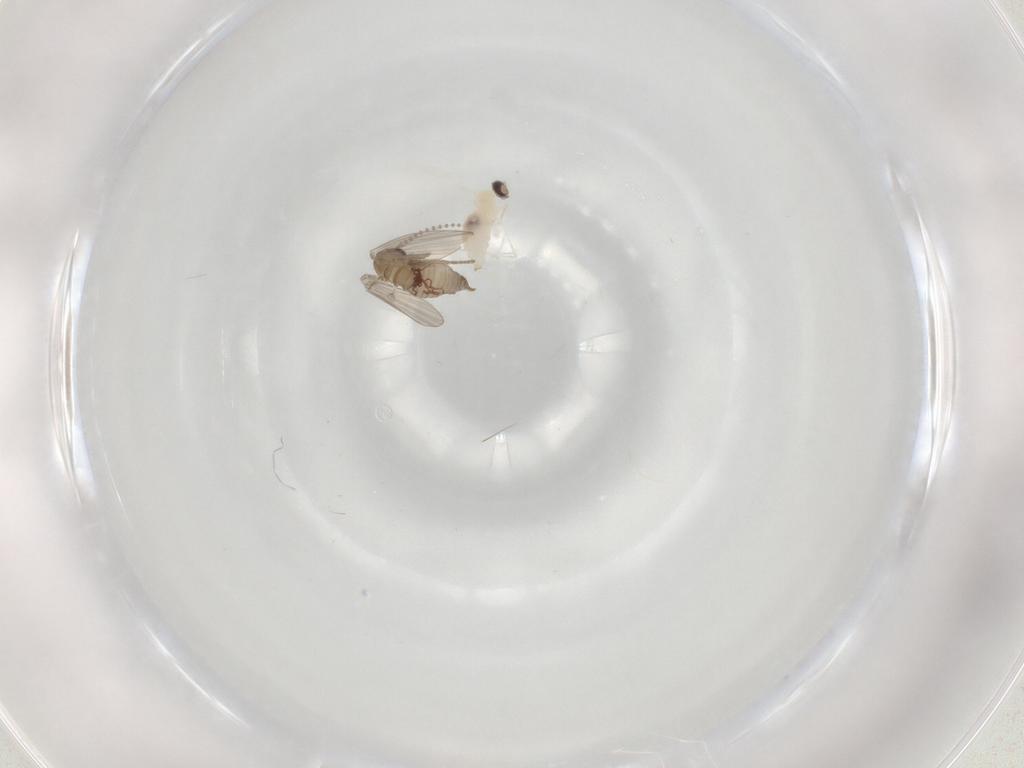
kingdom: Animalia
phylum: Arthropoda
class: Insecta
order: Diptera
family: Psychodidae
